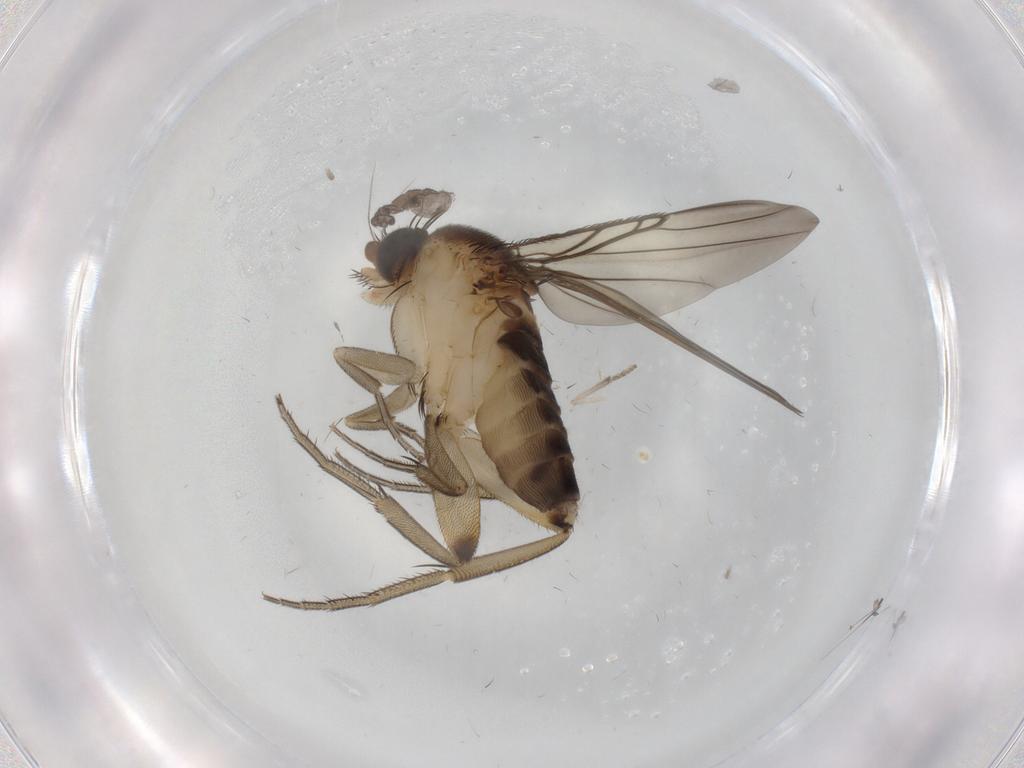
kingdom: Animalia
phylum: Arthropoda
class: Insecta
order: Diptera
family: Phoridae
